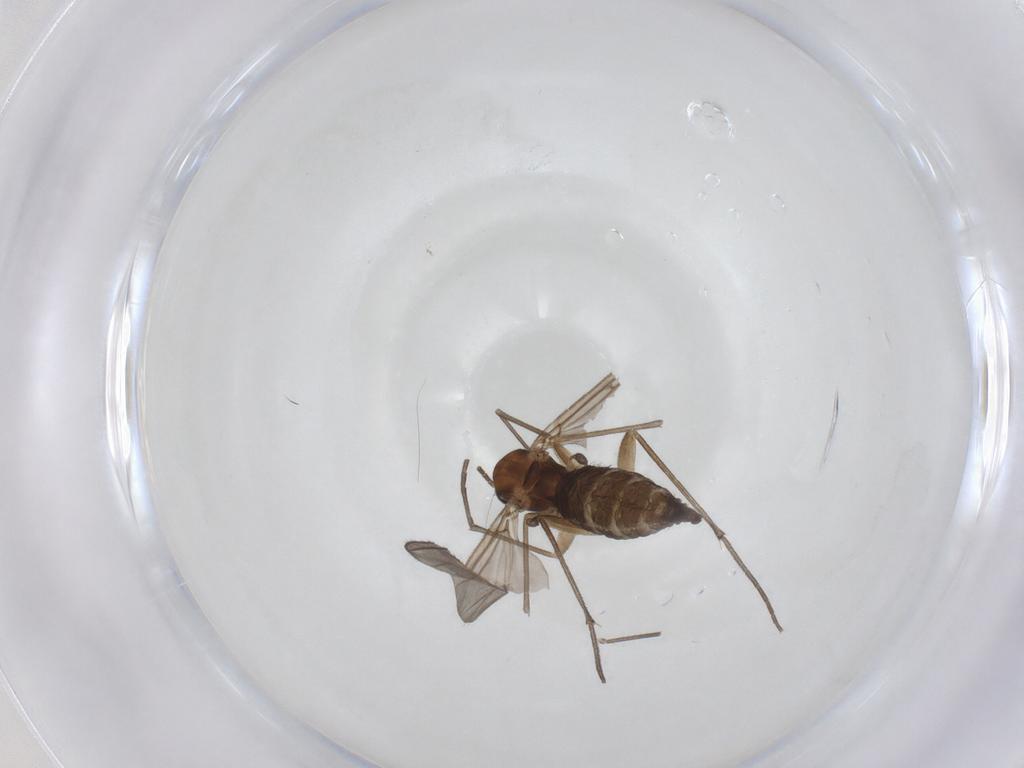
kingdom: Animalia
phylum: Arthropoda
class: Insecta
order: Diptera
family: Sciaridae
